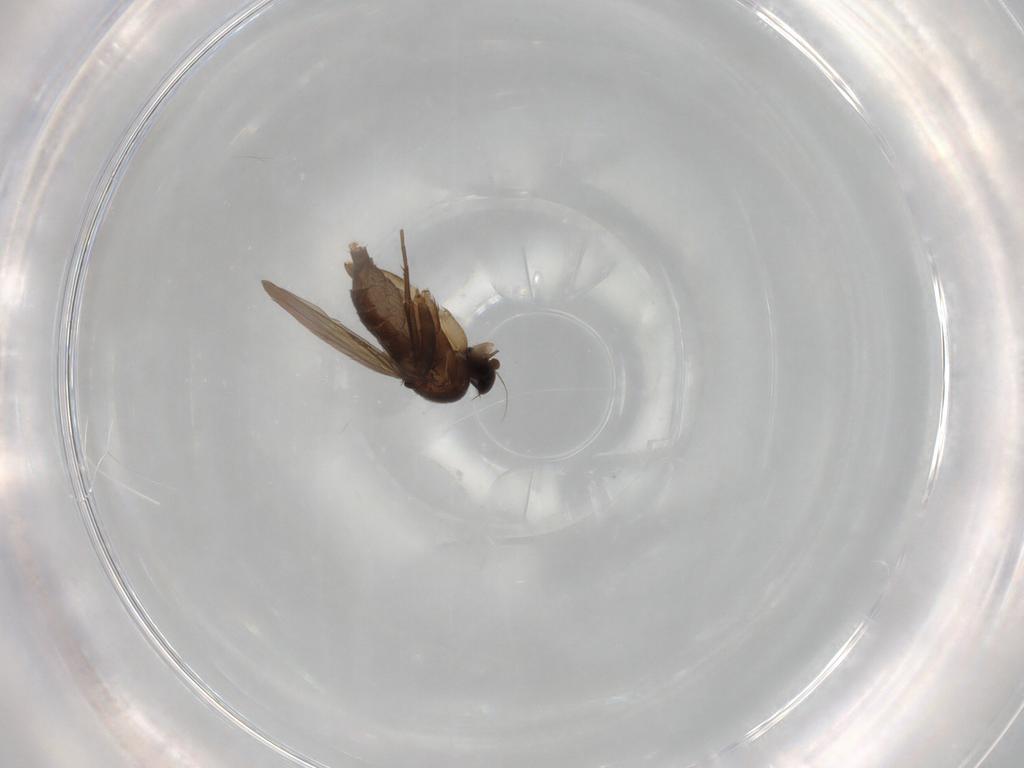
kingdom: Animalia
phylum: Arthropoda
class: Insecta
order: Diptera
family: Phoridae
